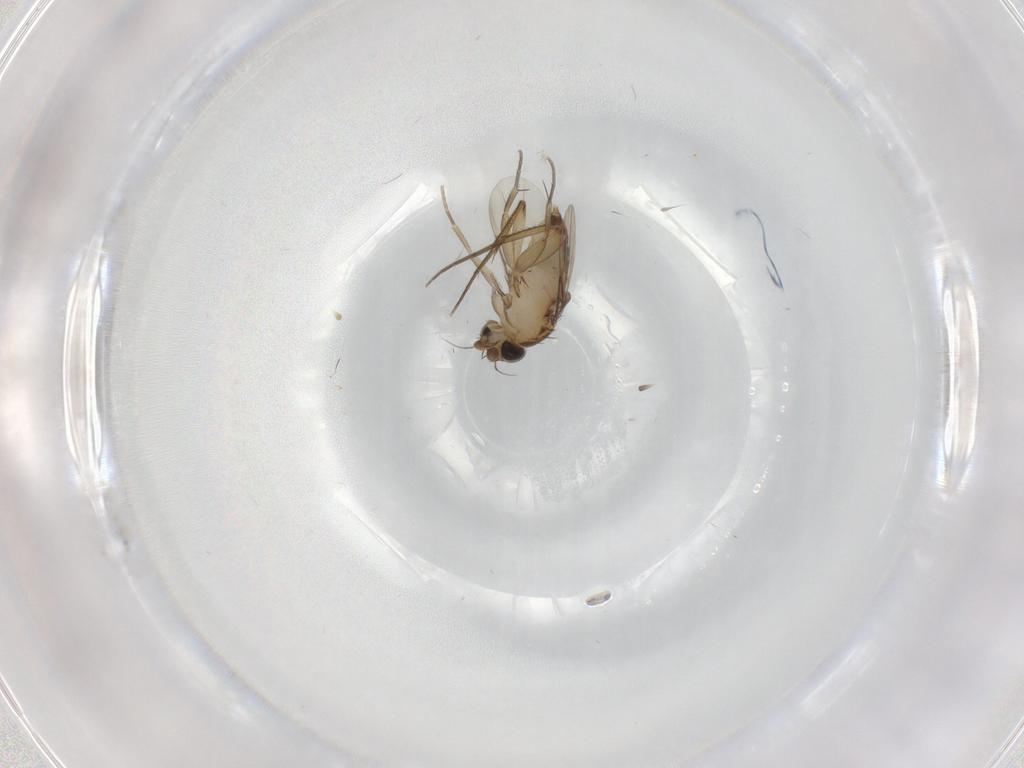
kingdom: Animalia
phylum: Arthropoda
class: Insecta
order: Diptera
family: Phoridae
